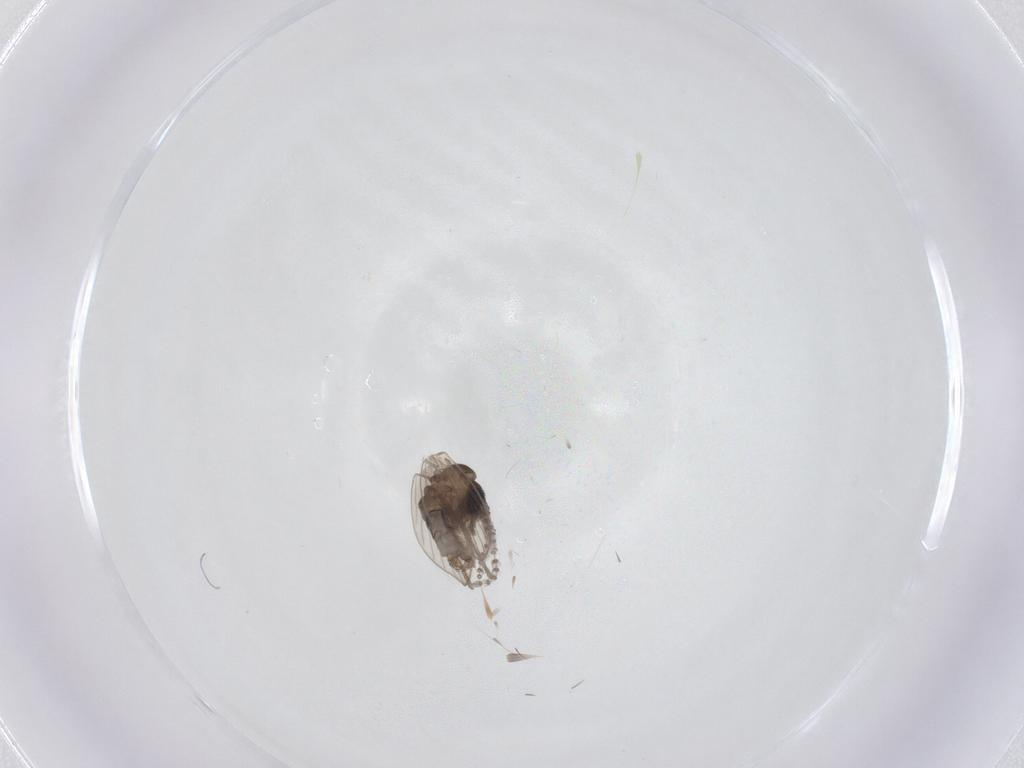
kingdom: Animalia
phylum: Arthropoda
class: Insecta
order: Diptera
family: Psychodidae
